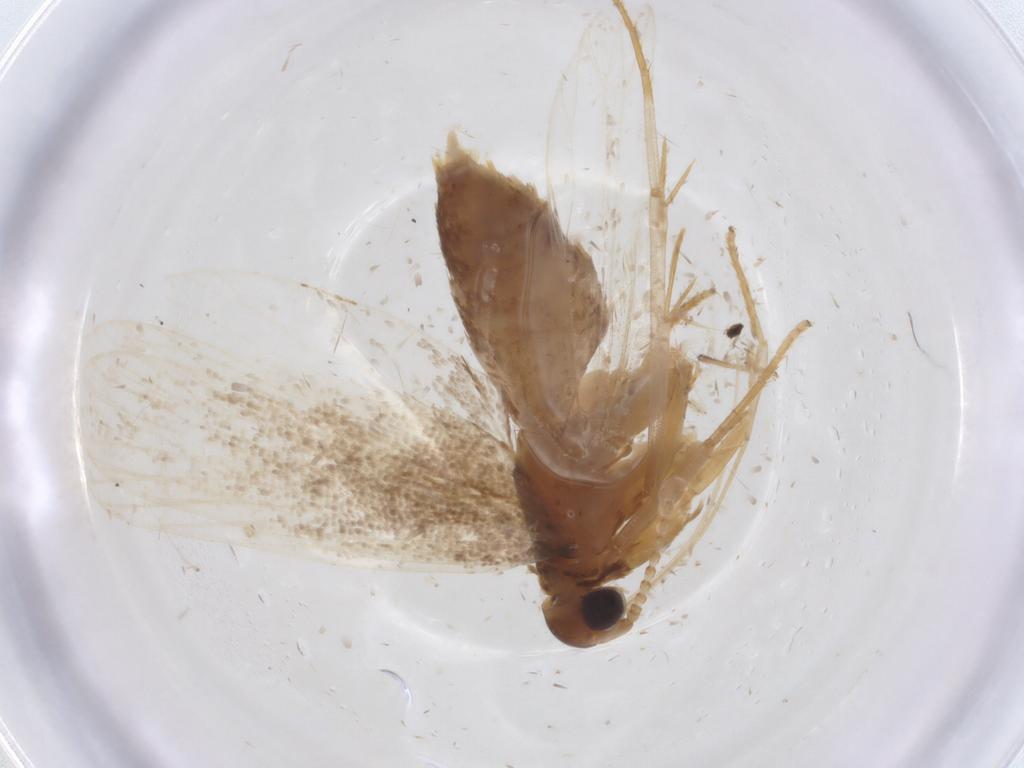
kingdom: Animalia
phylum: Arthropoda
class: Insecta
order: Lepidoptera
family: Lecithoceridae
